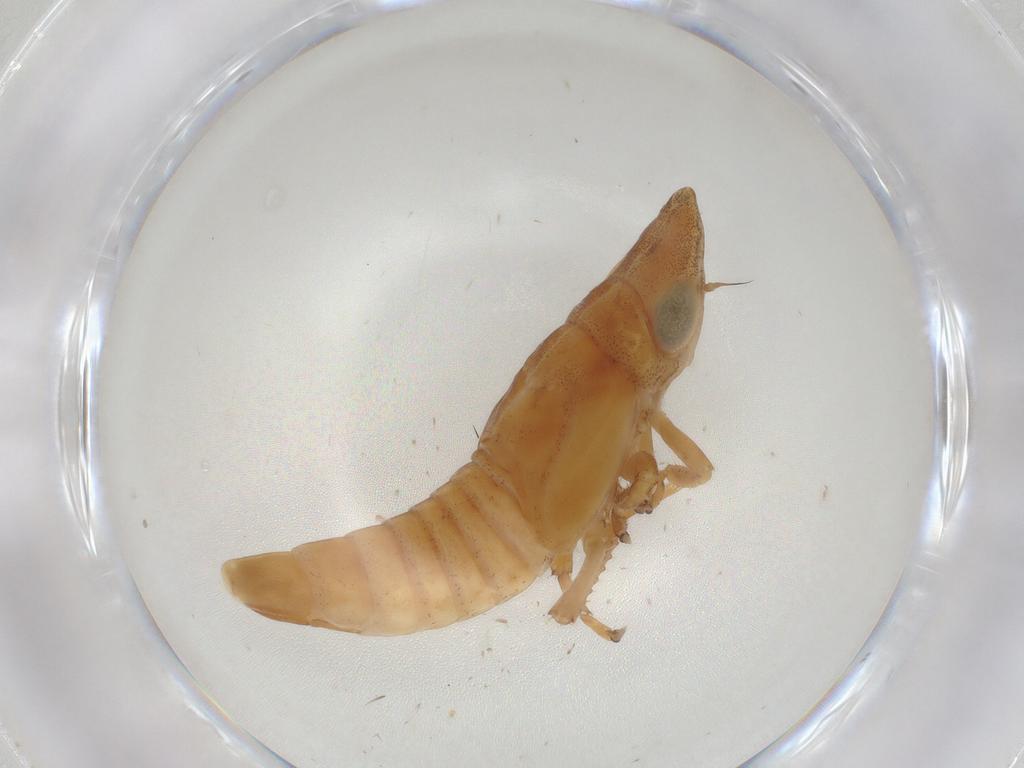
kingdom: Animalia
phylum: Arthropoda
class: Insecta
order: Hemiptera
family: Cicadellidae
